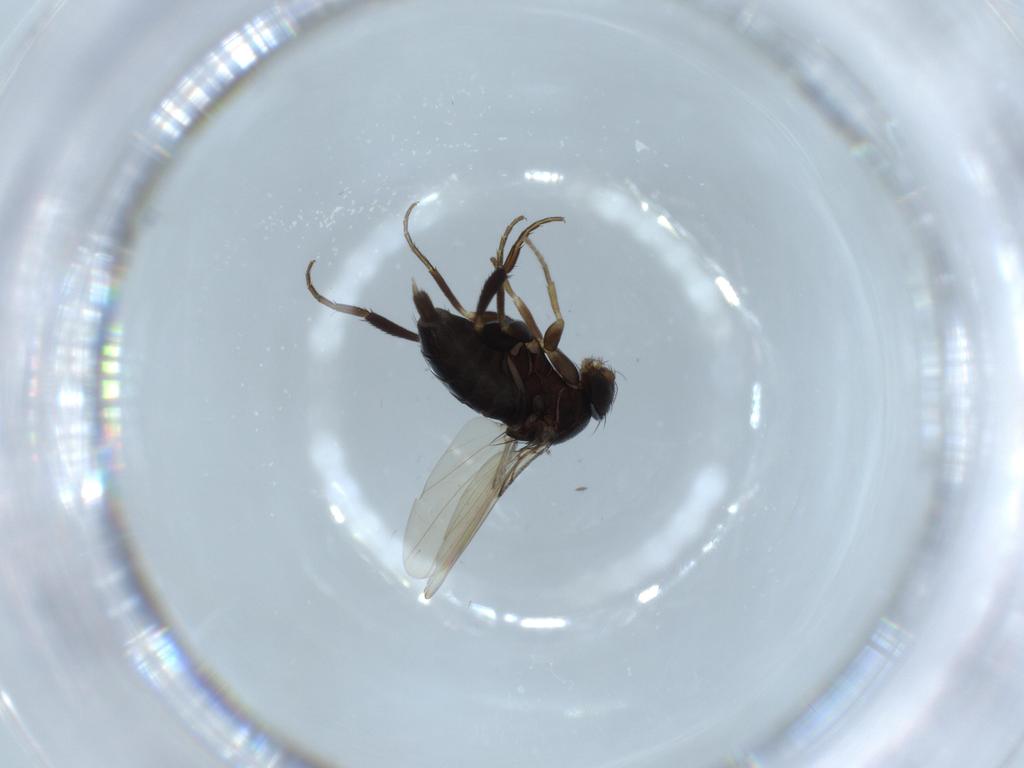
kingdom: Animalia
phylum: Arthropoda
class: Insecta
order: Diptera
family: Phoridae
